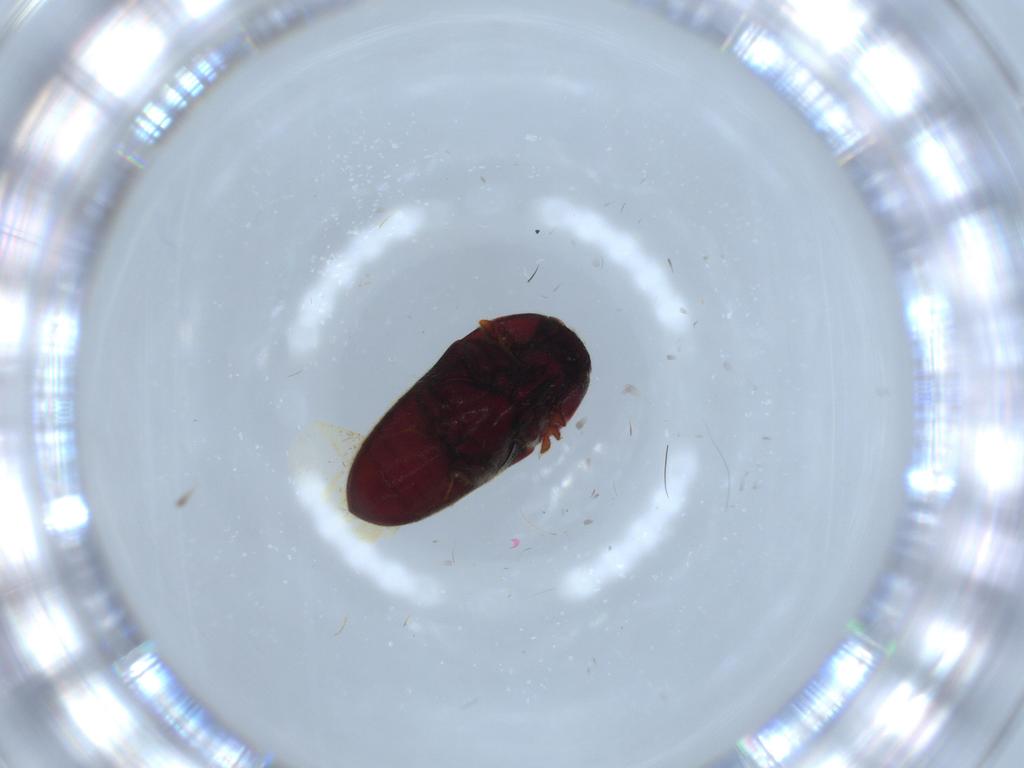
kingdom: Animalia
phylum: Arthropoda
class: Insecta
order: Coleoptera
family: Throscidae
